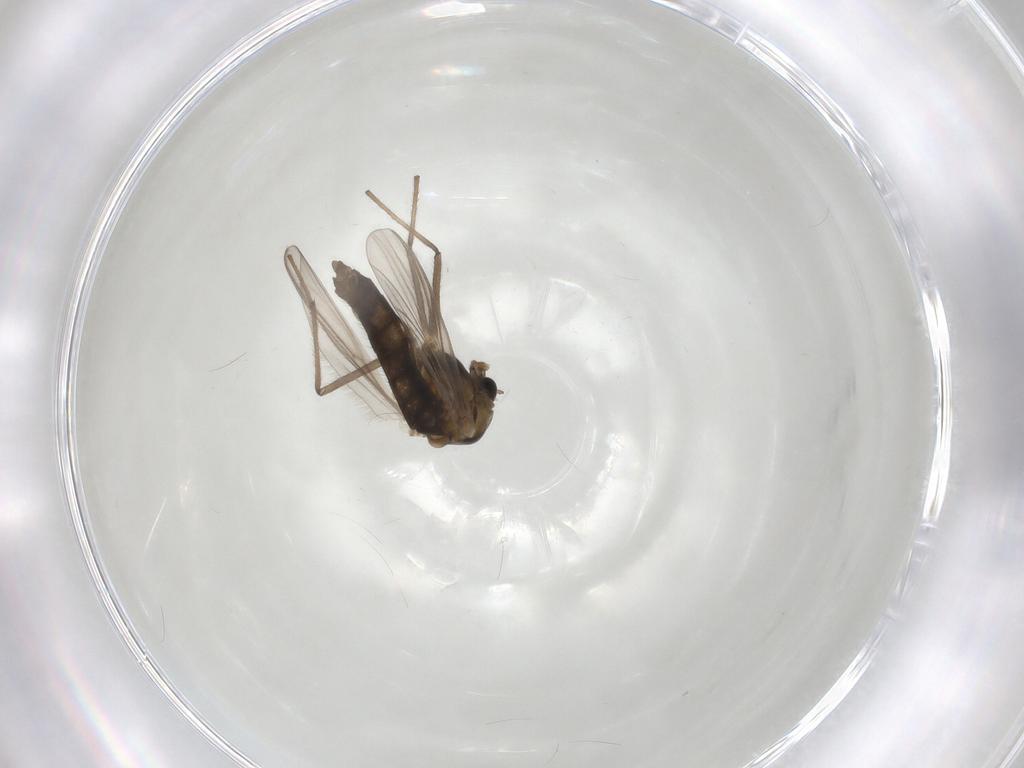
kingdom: Animalia
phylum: Arthropoda
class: Insecta
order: Diptera
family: Chironomidae
